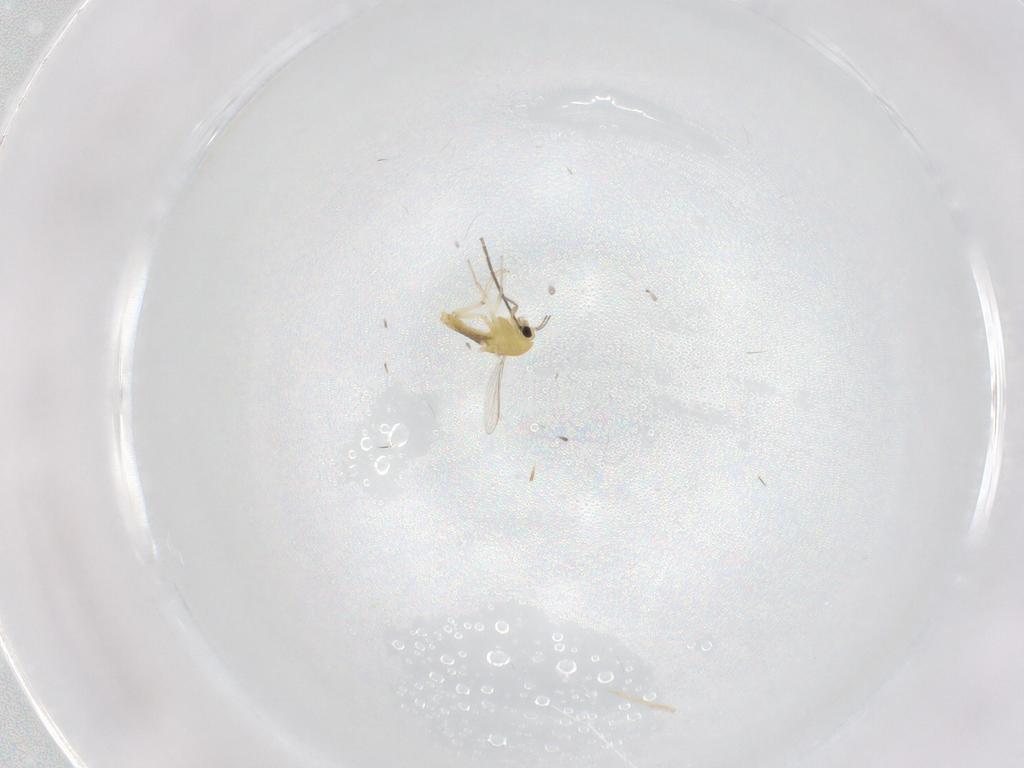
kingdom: Animalia
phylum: Arthropoda
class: Insecta
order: Diptera
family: Chironomidae
